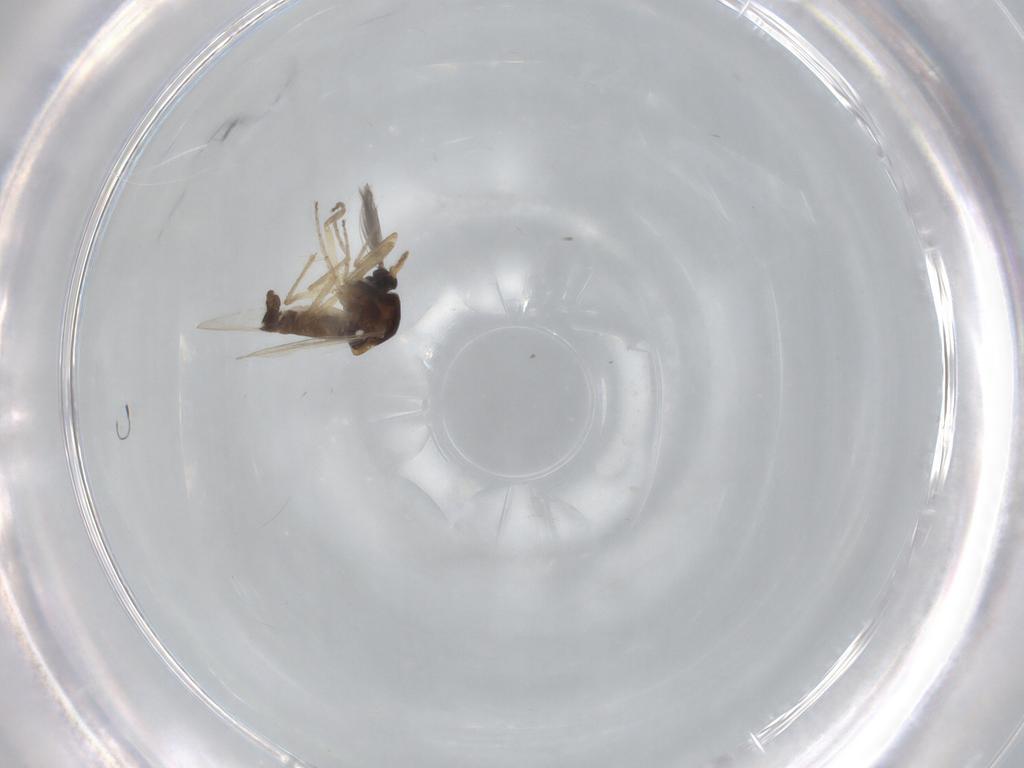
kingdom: Animalia
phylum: Arthropoda
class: Insecta
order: Diptera
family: Ceratopogonidae
